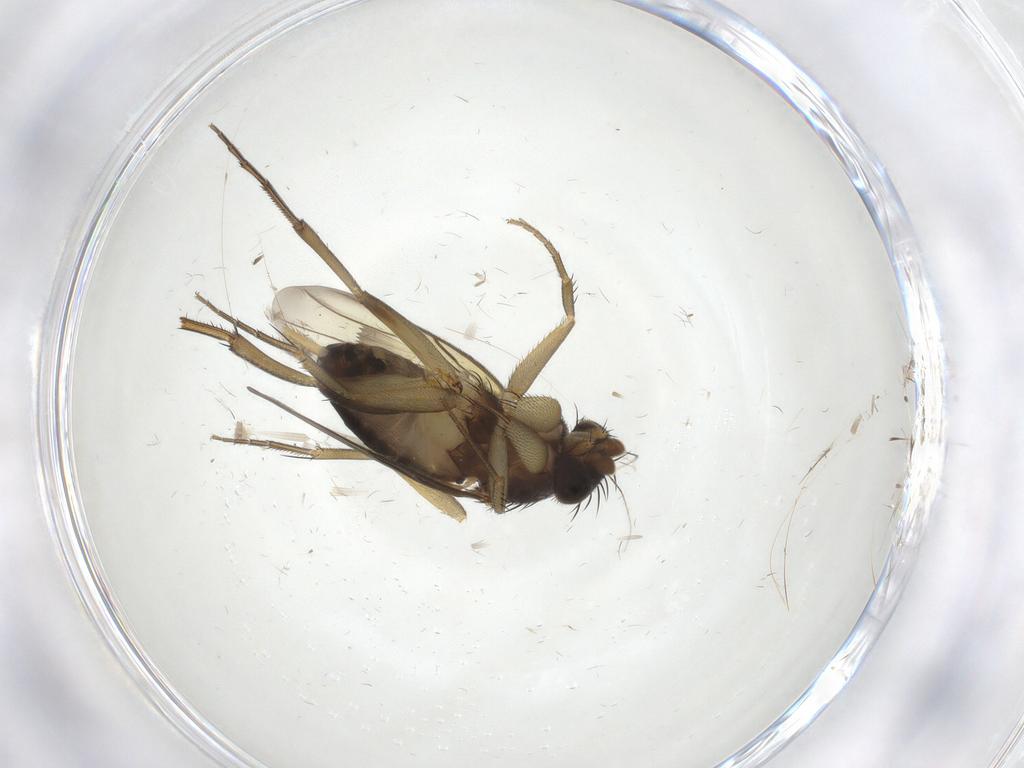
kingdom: Animalia
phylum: Arthropoda
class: Insecta
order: Diptera
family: Phoridae
